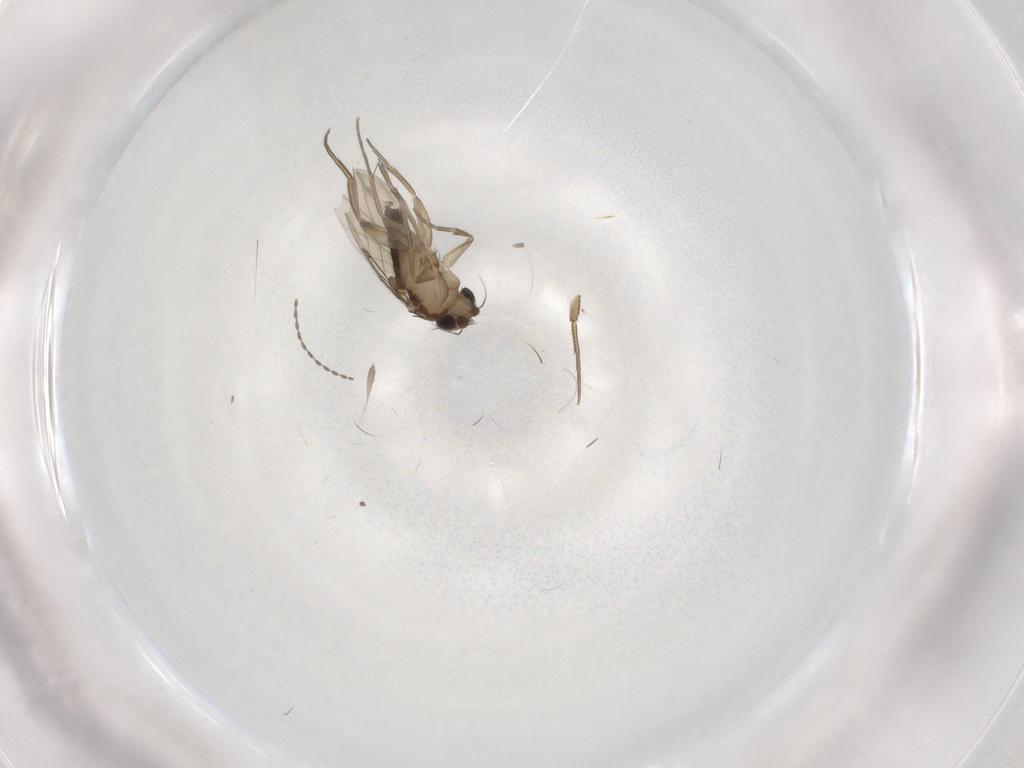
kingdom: Animalia
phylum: Arthropoda
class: Insecta
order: Diptera
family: Phoridae
